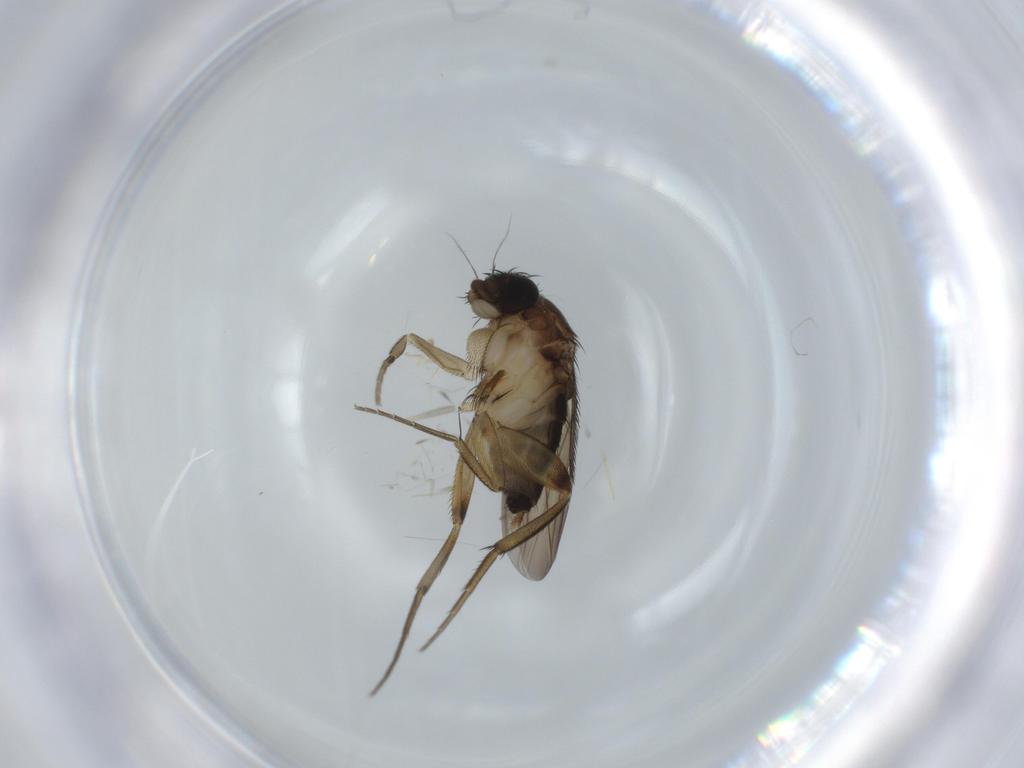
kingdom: Animalia
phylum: Arthropoda
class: Insecta
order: Diptera
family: Phoridae
